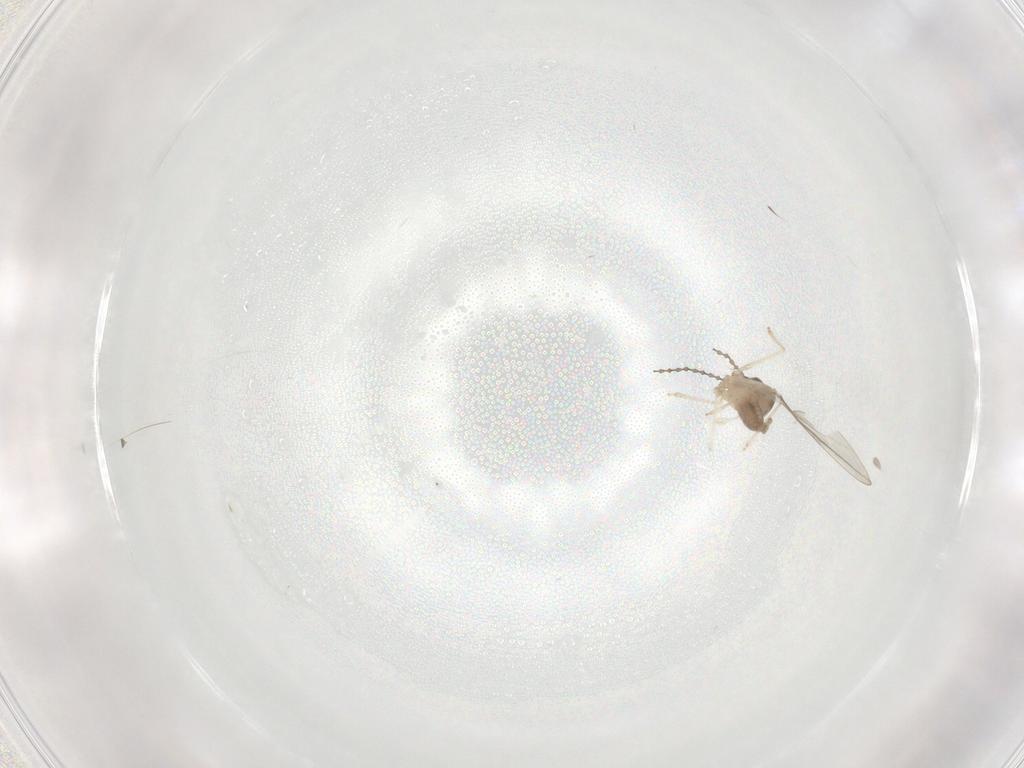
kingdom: Animalia
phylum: Arthropoda
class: Insecta
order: Diptera
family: Cecidomyiidae
